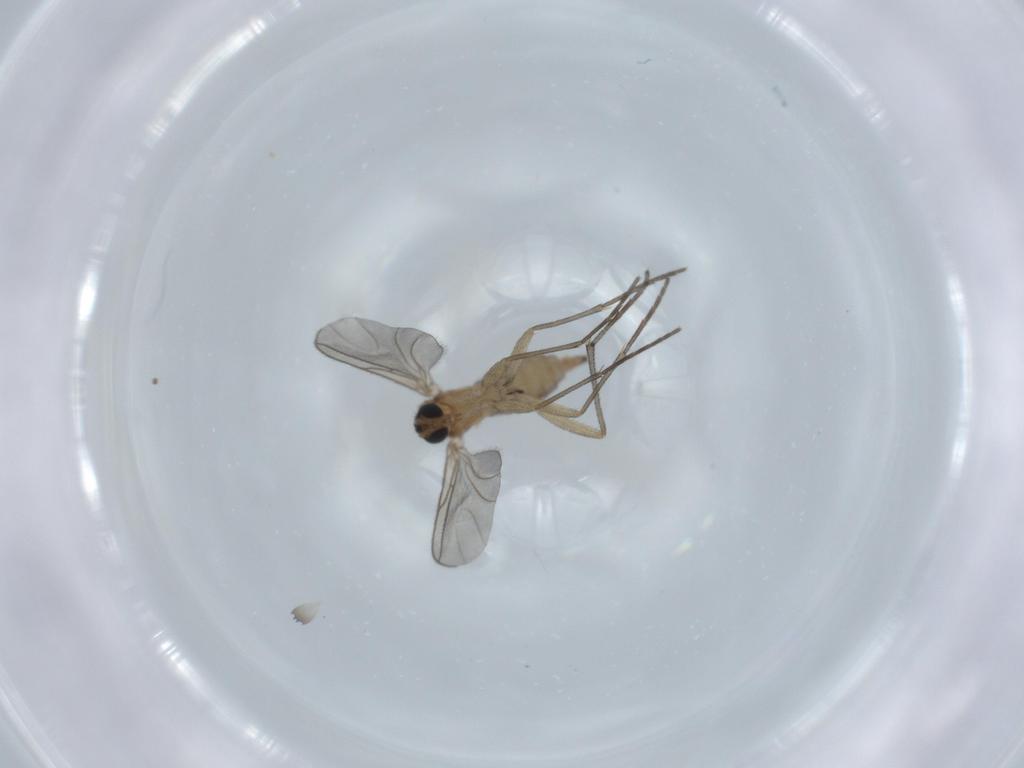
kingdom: Animalia
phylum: Arthropoda
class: Insecta
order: Diptera
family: Sciaridae
